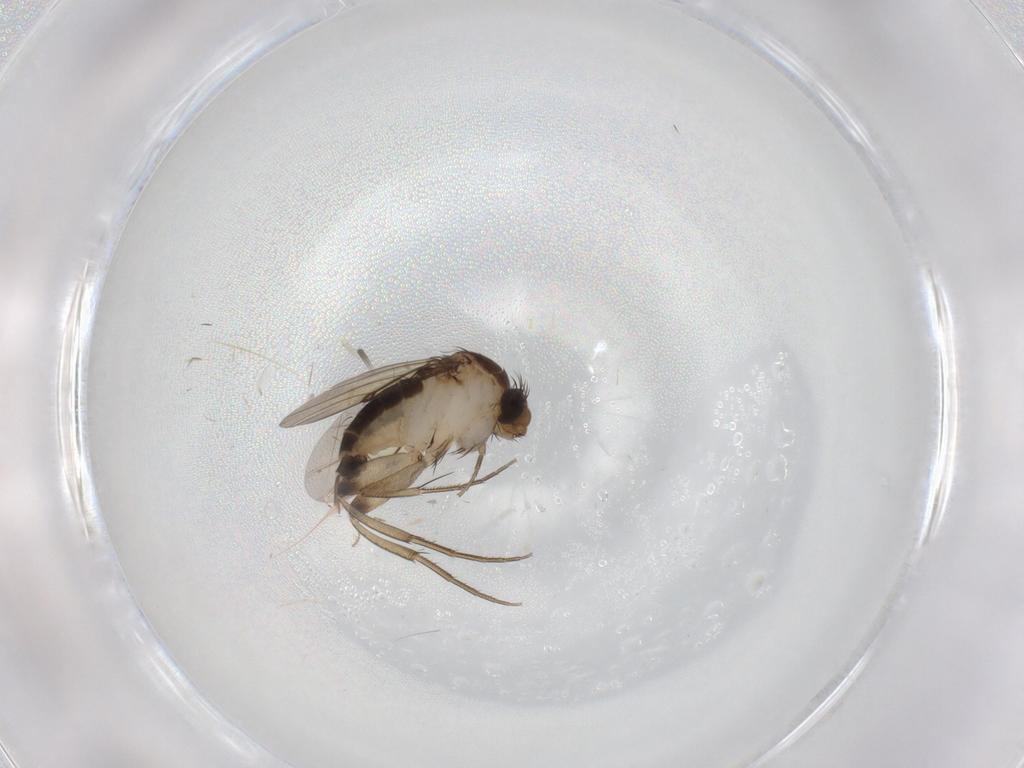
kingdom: Animalia
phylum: Arthropoda
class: Insecta
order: Diptera
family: Phoridae
